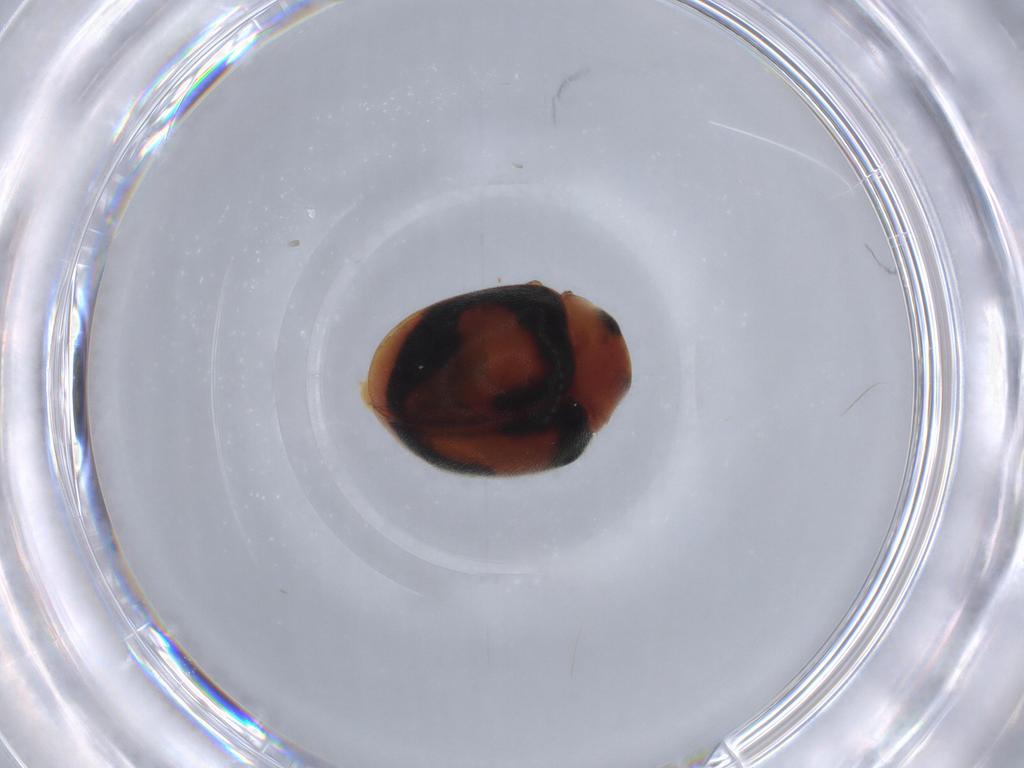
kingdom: Animalia
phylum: Arthropoda
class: Insecta
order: Coleoptera
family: Coccinellidae
